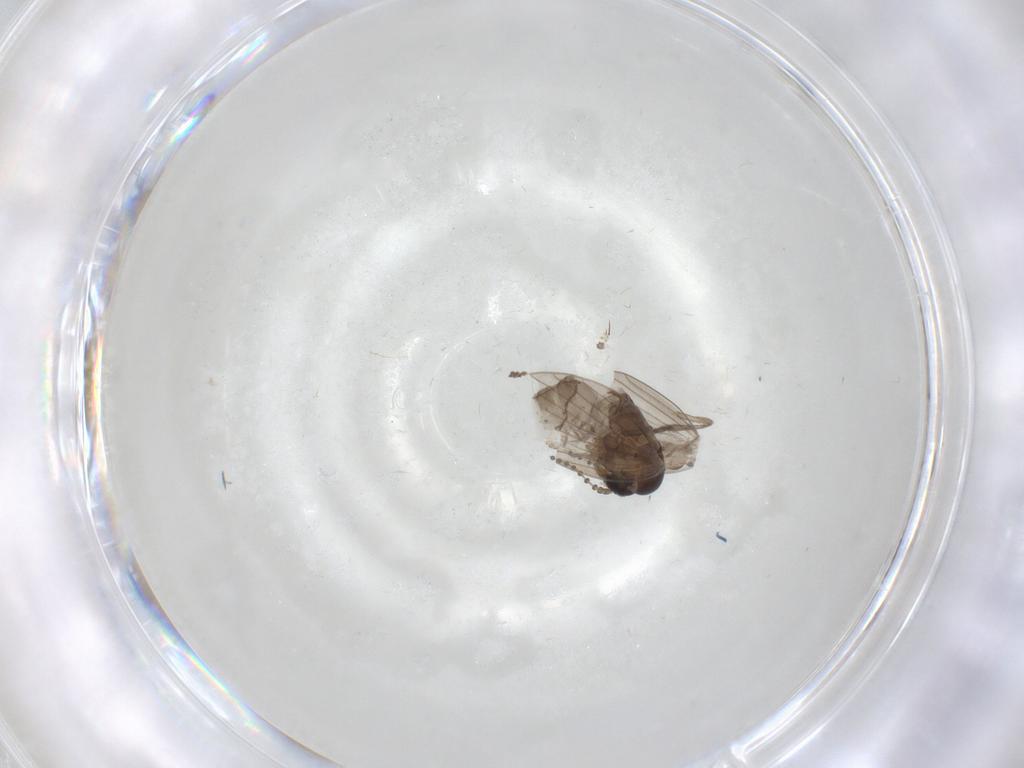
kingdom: Animalia
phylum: Arthropoda
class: Insecta
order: Diptera
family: Psychodidae
